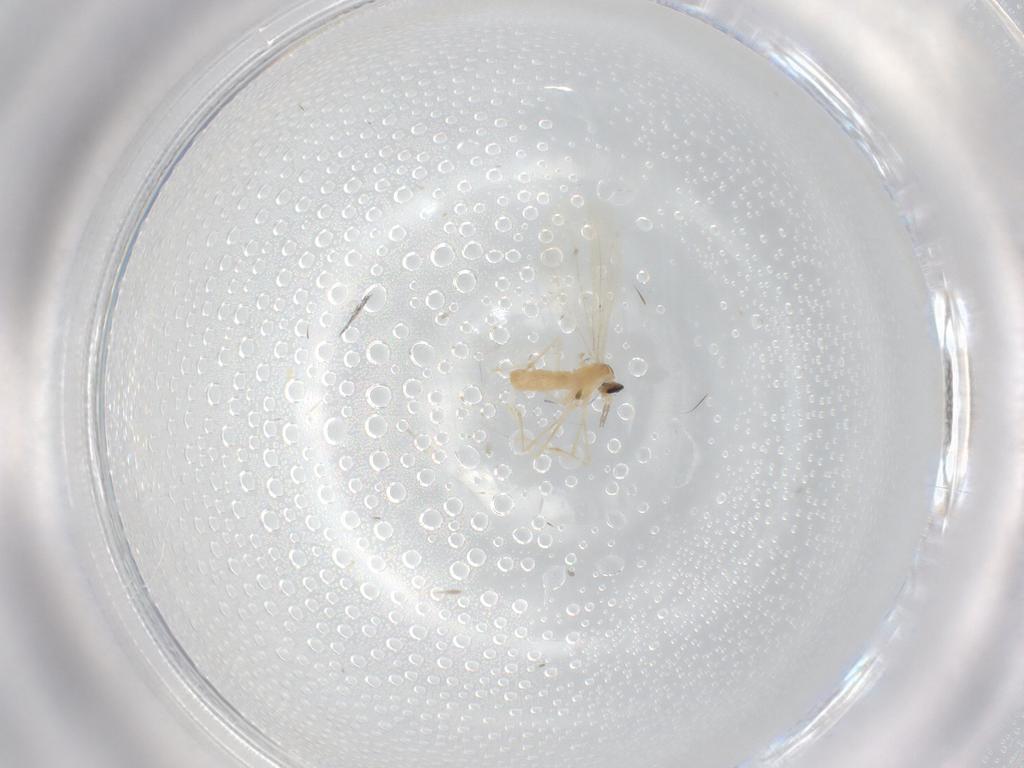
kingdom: Animalia
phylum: Arthropoda
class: Insecta
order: Diptera
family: Cecidomyiidae
